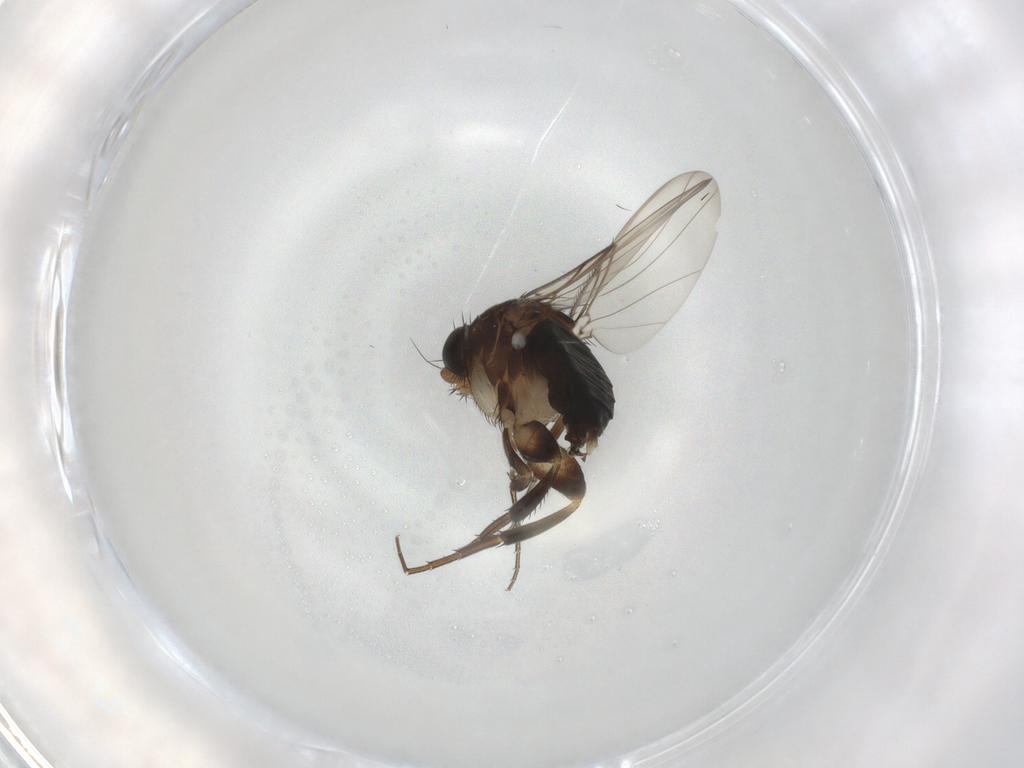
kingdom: Animalia
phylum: Arthropoda
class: Insecta
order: Diptera
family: Phoridae
